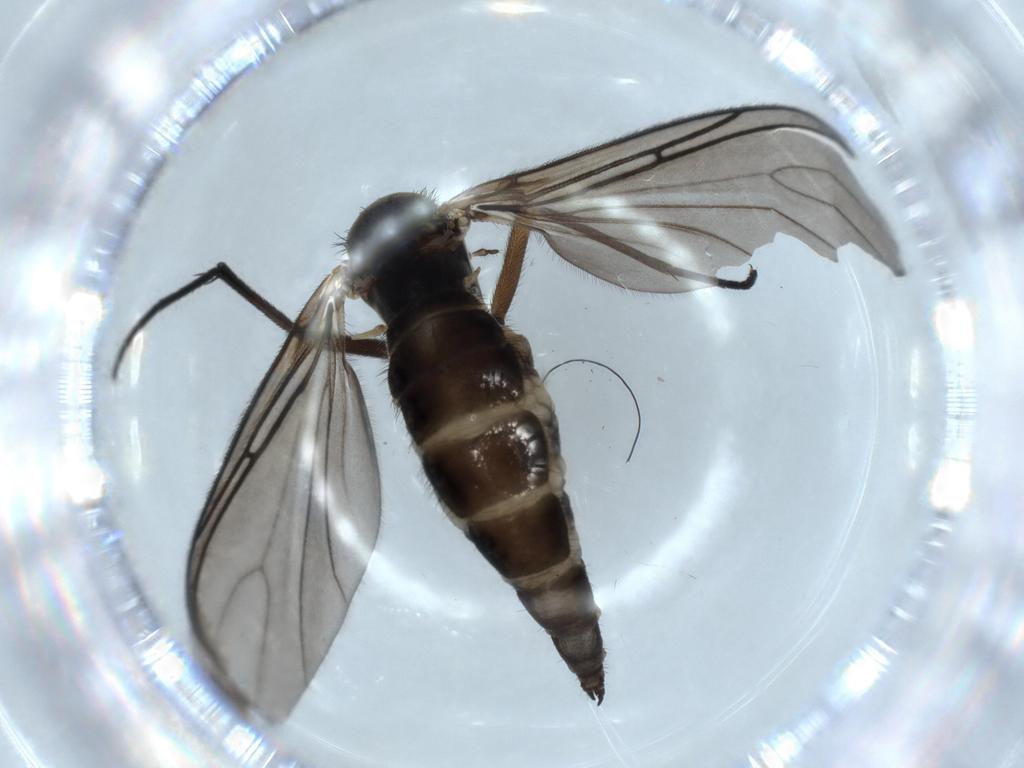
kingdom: Animalia
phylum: Arthropoda
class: Insecta
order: Diptera
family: Sciaridae
